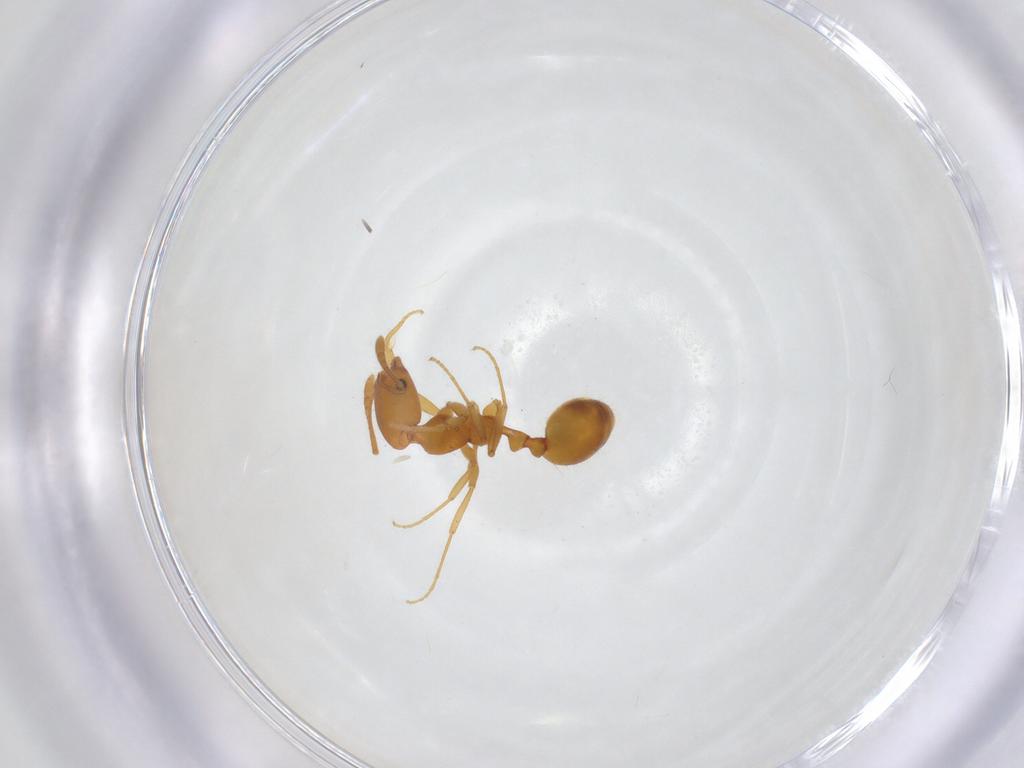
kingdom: Animalia
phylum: Arthropoda
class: Insecta
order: Hymenoptera
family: Formicidae
